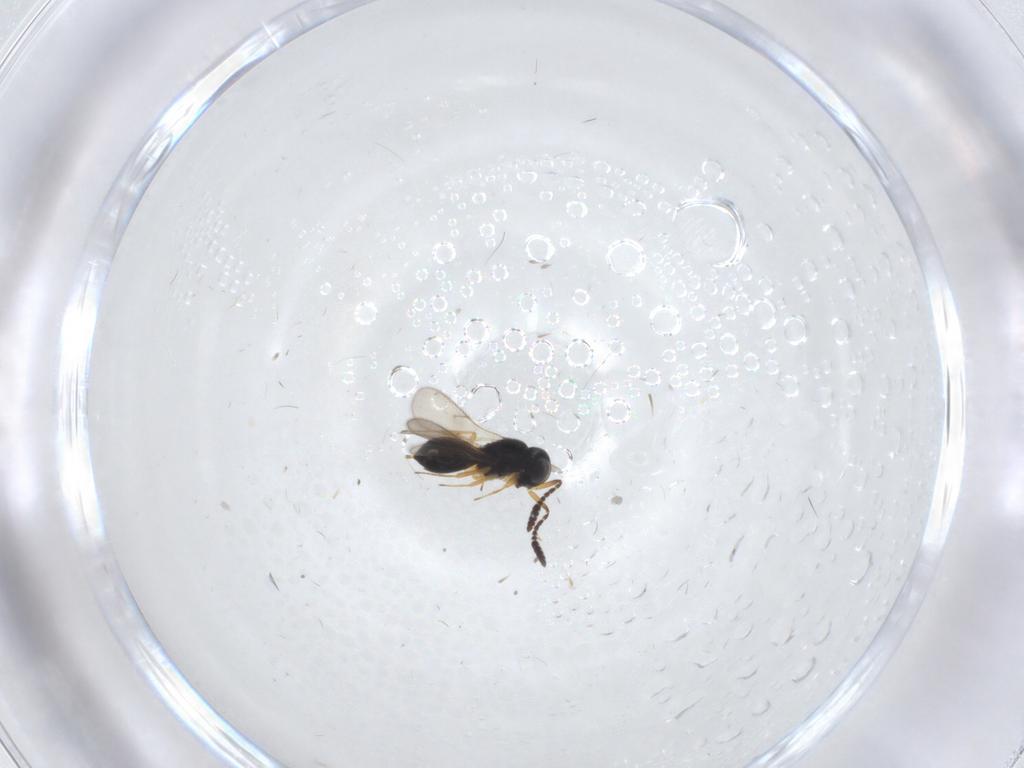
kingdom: Animalia
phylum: Arthropoda
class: Insecta
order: Hymenoptera
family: Scelionidae
